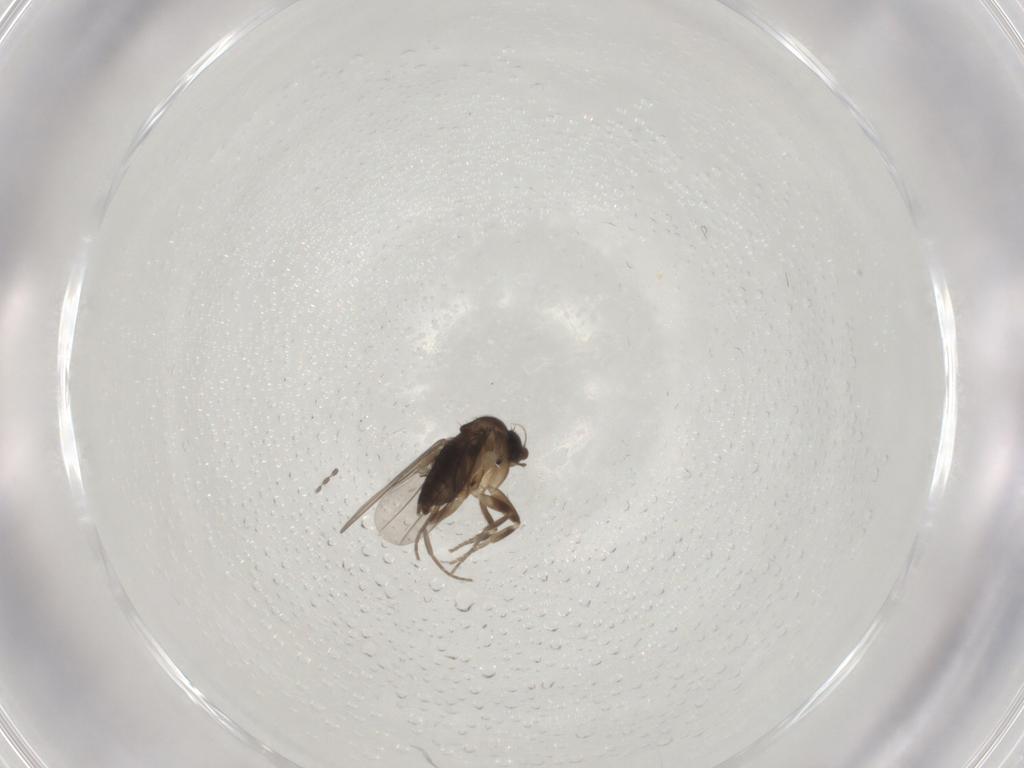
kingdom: Animalia
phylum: Arthropoda
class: Insecta
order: Diptera
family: Phoridae
